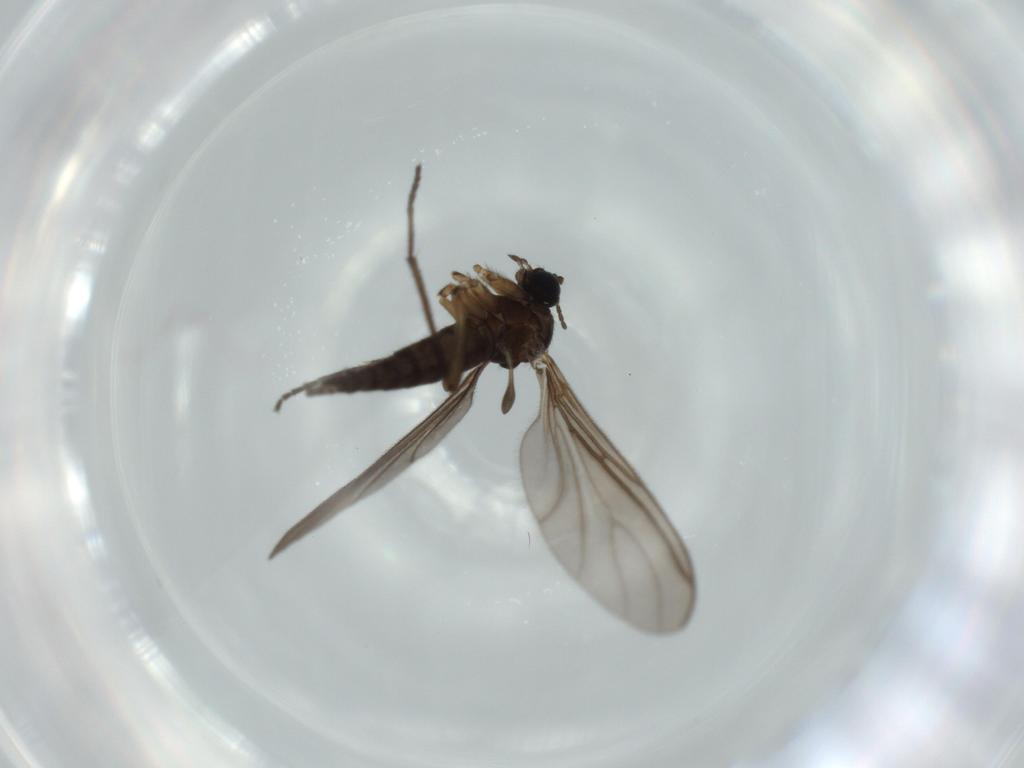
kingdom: Animalia
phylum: Arthropoda
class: Insecta
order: Diptera
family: Sciaridae
